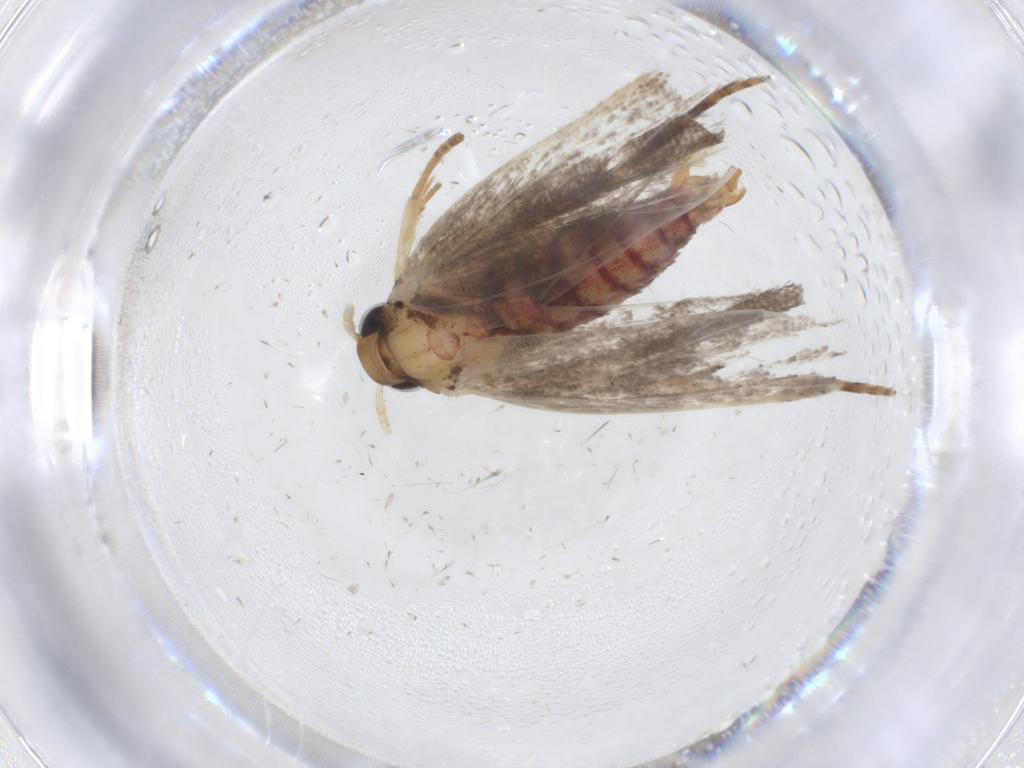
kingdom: Animalia
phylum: Arthropoda
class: Insecta
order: Lepidoptera
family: Lecithoceridae
